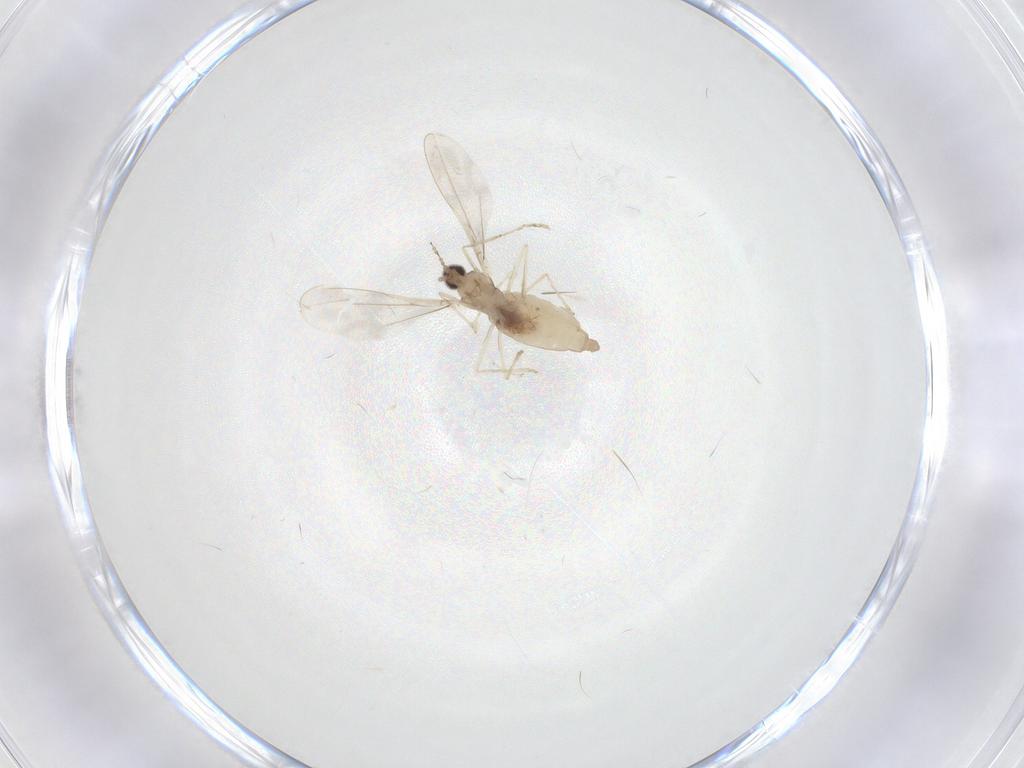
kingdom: Animalia
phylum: Arthropoda
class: Insecta
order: Diptera
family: Cecidomyiidae
